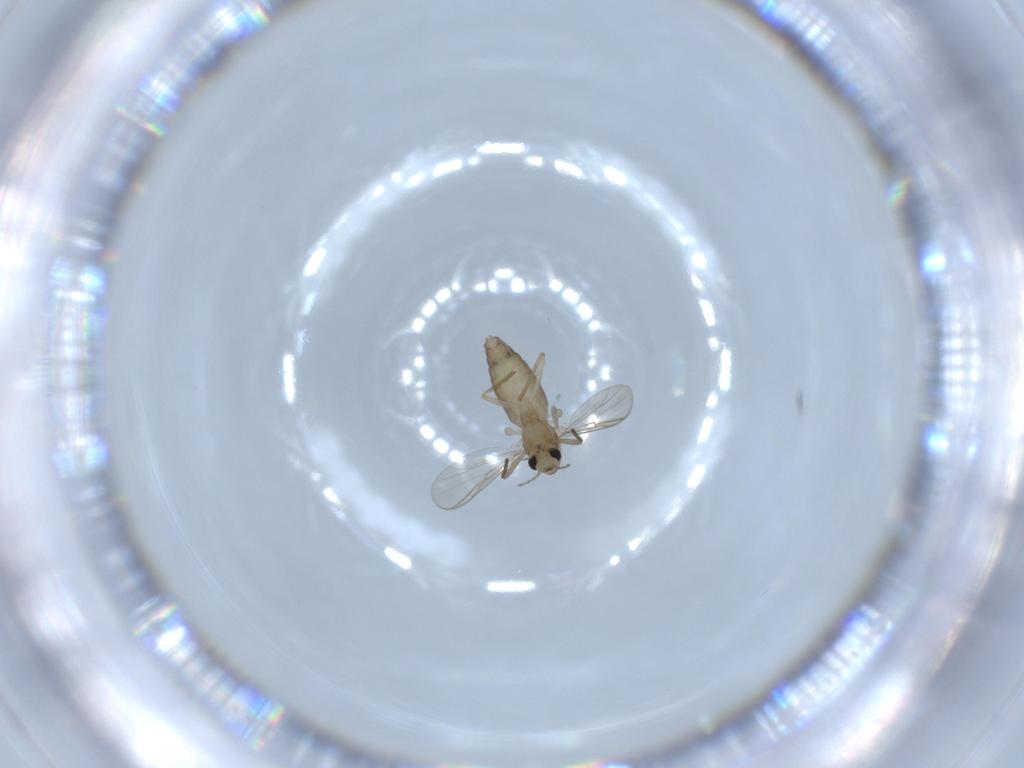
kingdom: Animalia
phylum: Arthropoda
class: Insecta
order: Diptera
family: Chironomidae
